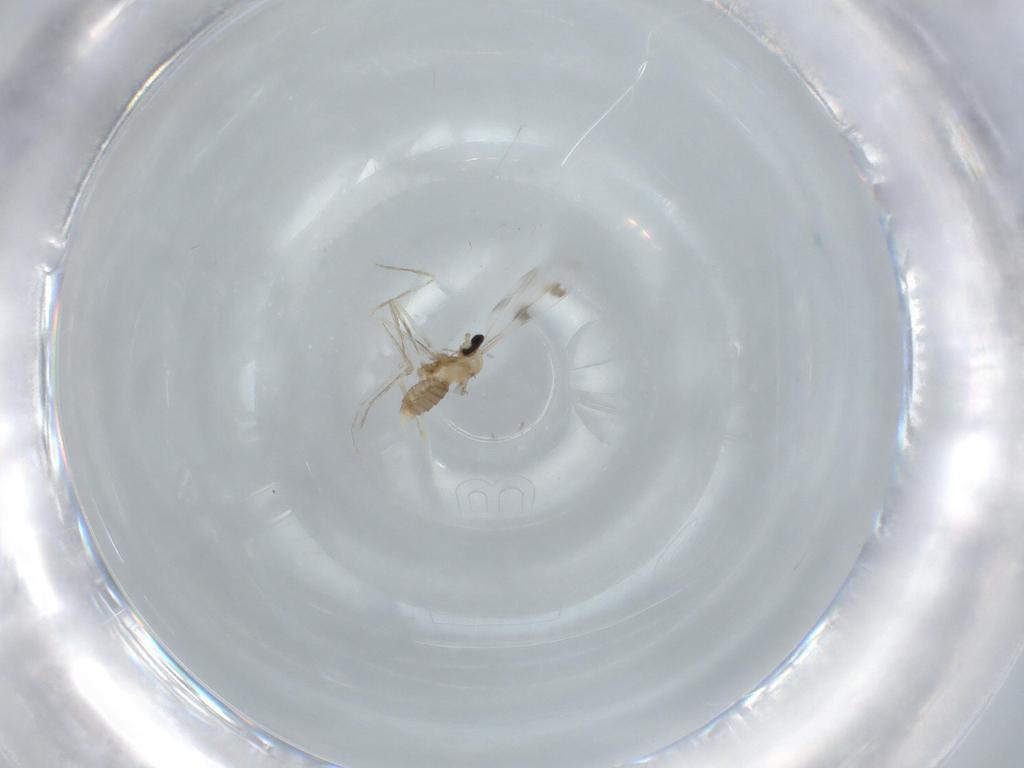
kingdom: Animalia
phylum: Arthropoda
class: Insecta
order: Diptera
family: Cecidomyiidae
